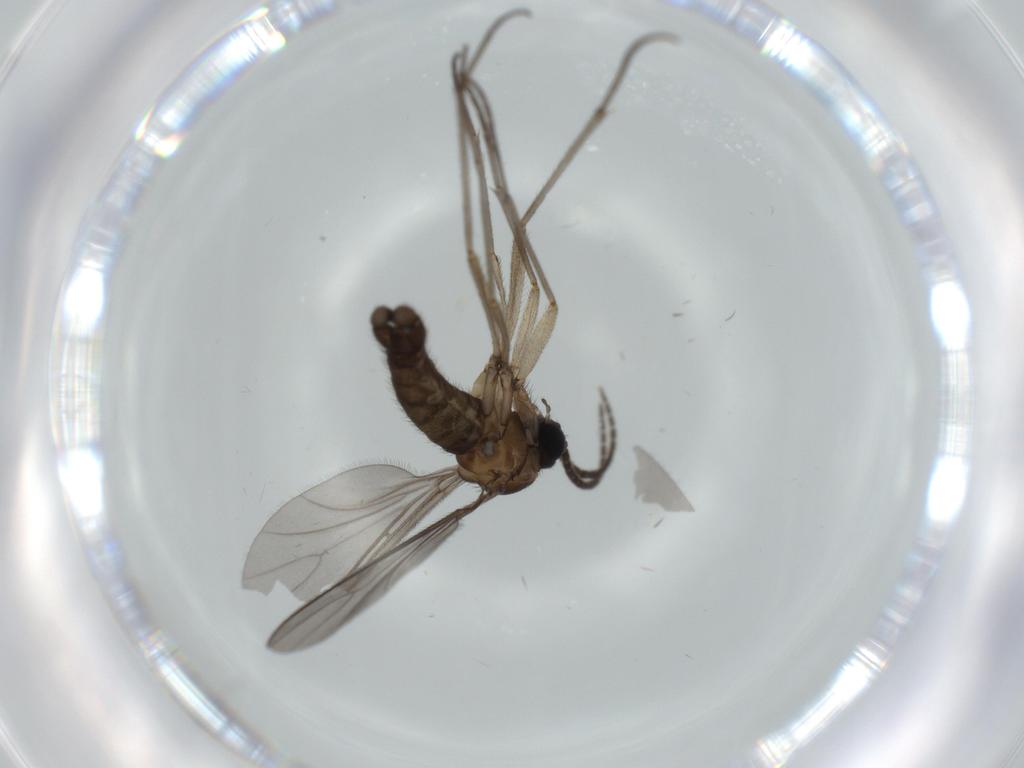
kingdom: Animalia
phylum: Arthropoda
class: Insecta
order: Diptera
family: Sciaridae
